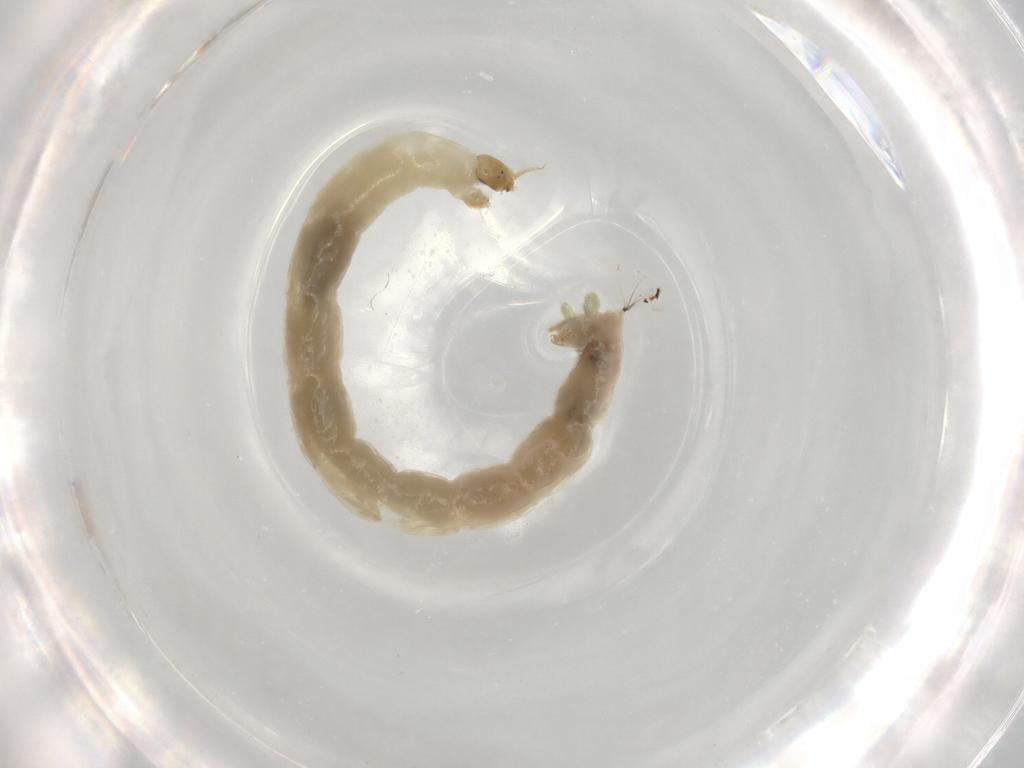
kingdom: Animalia
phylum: Arthropoda
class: Insecta
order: Diptera
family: Chironomidae
